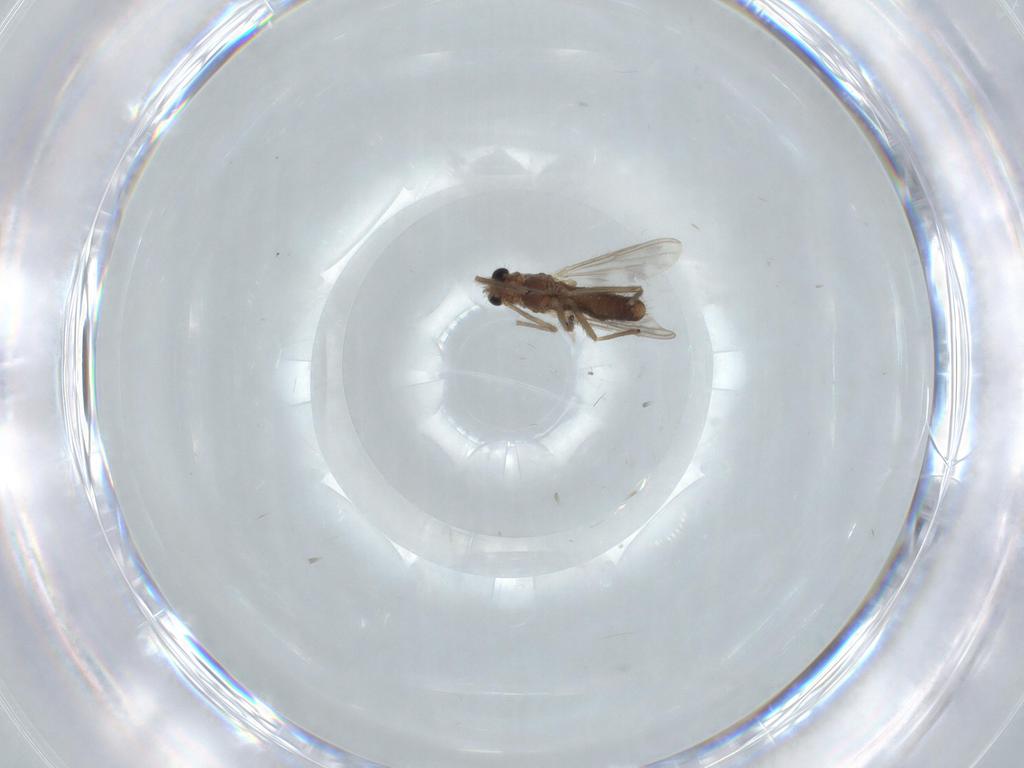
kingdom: Animalia
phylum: Arthropoda
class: Insecta
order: Diptera
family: Chironomidae
